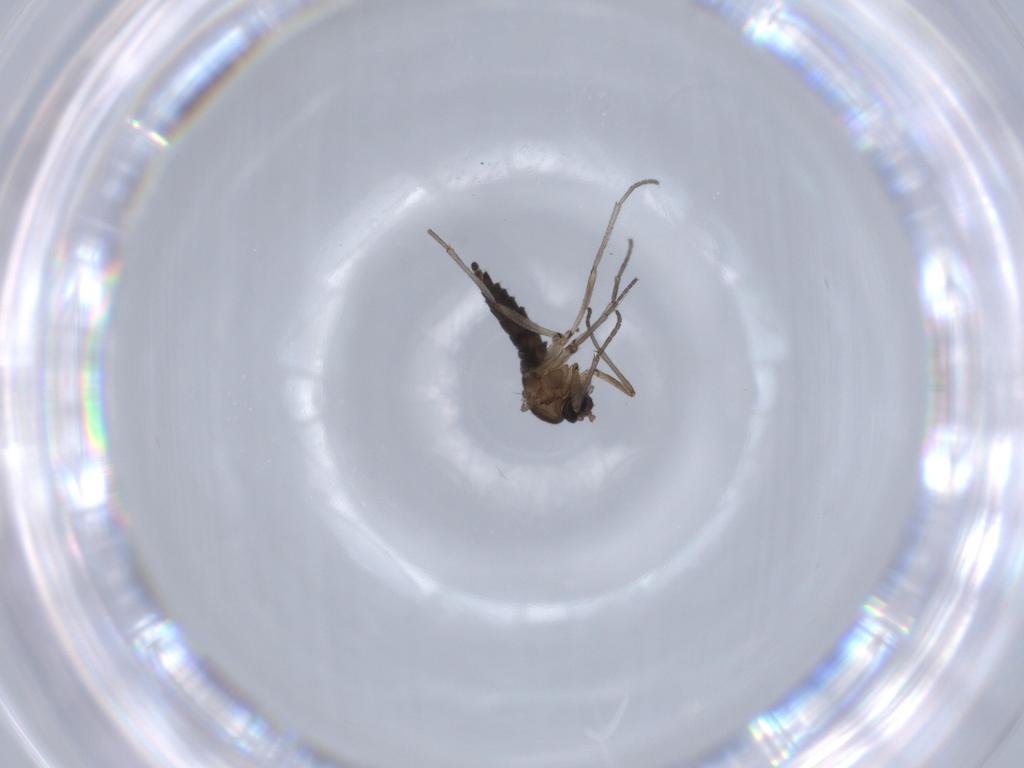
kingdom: Animalia
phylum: Arthropoda
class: Insecta
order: Diptera
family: Sciaridae
